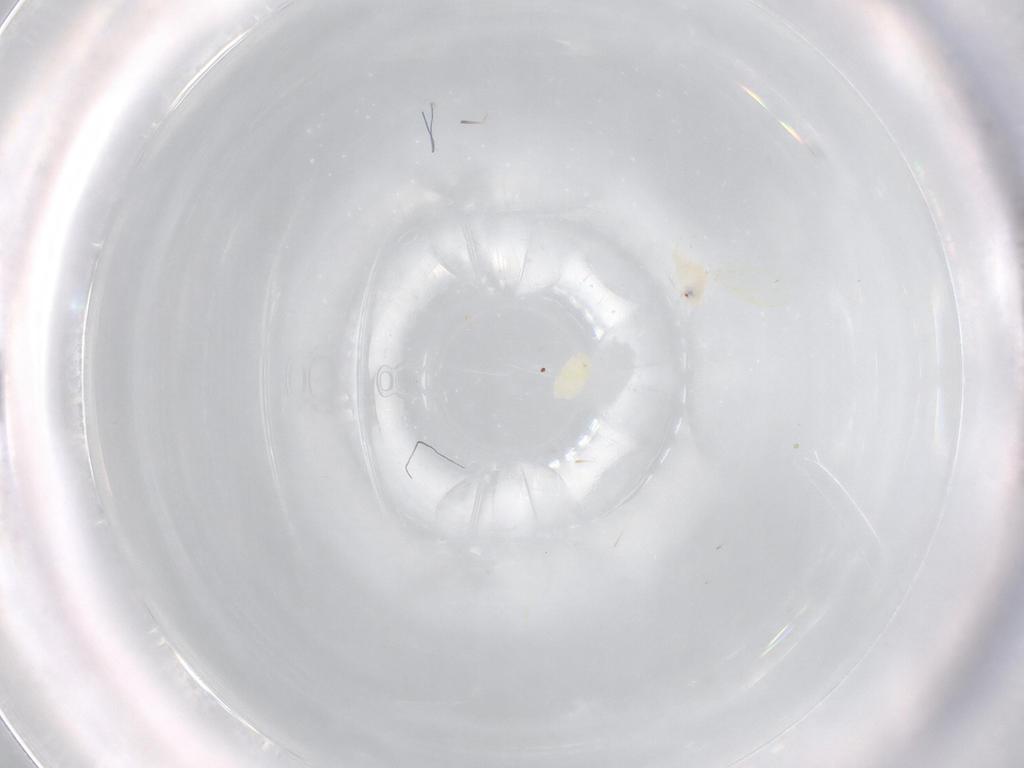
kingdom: Animalia
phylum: Arthropoda
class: Insecta
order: Hemiptera
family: Aleyrodidae
